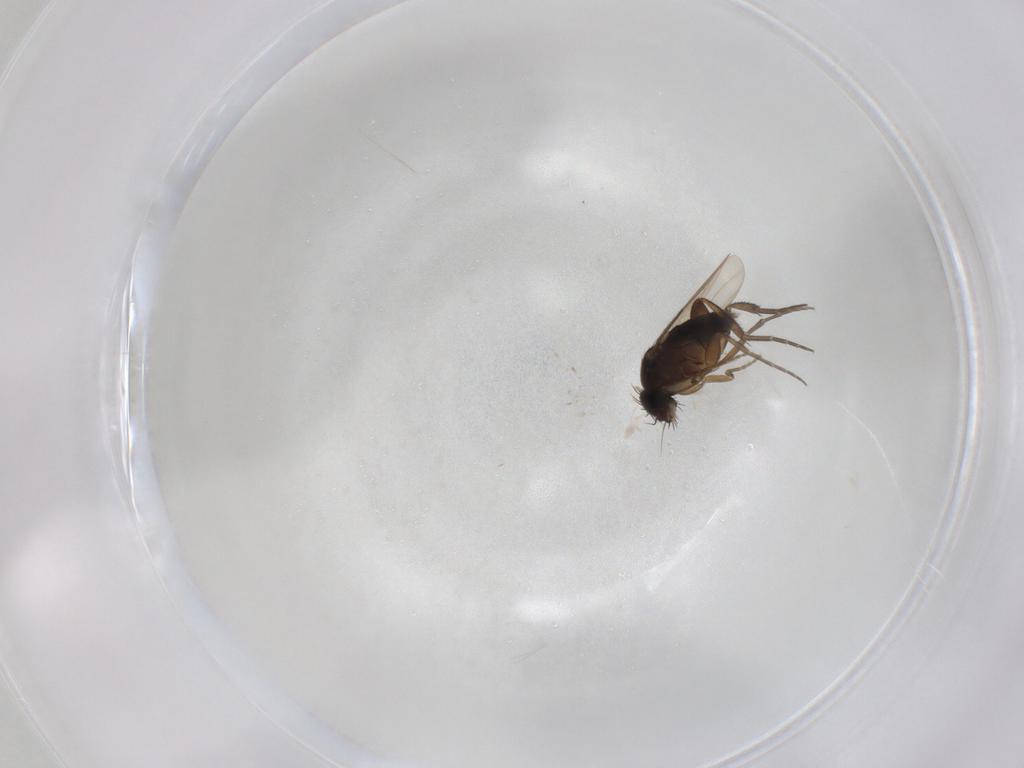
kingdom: Animalia
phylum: Arthropoda
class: Insecta
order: Diptera
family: Phoridae
